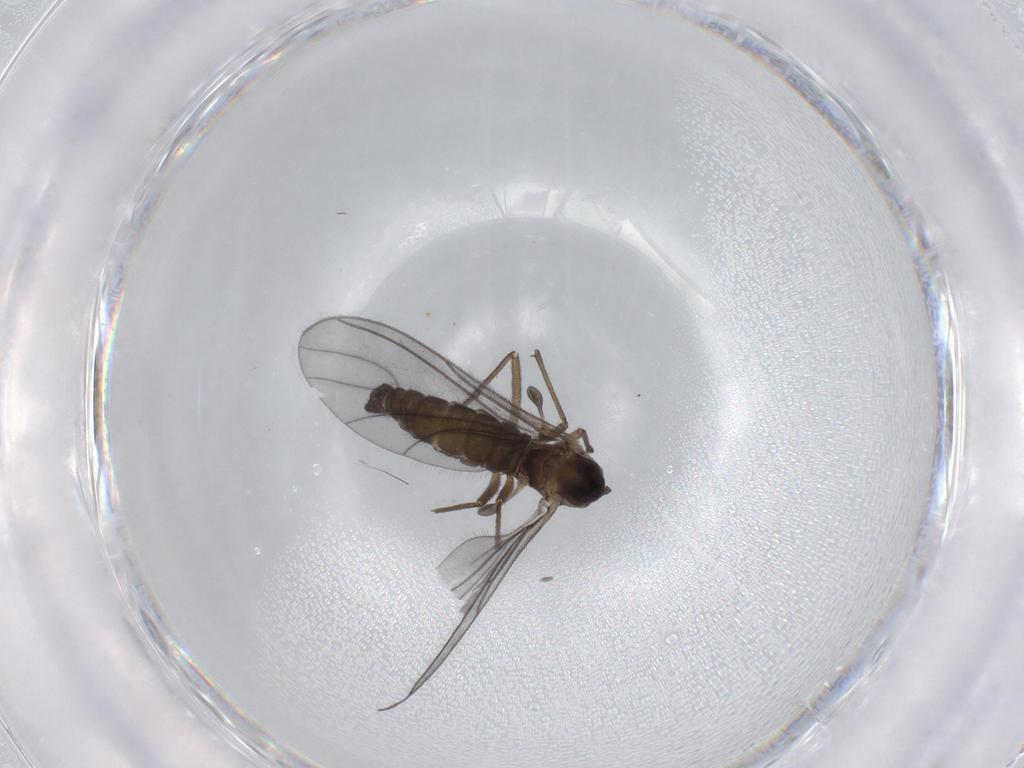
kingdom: Animalia
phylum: Arthropoda
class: Insecta
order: Diptera
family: Sciaridae
